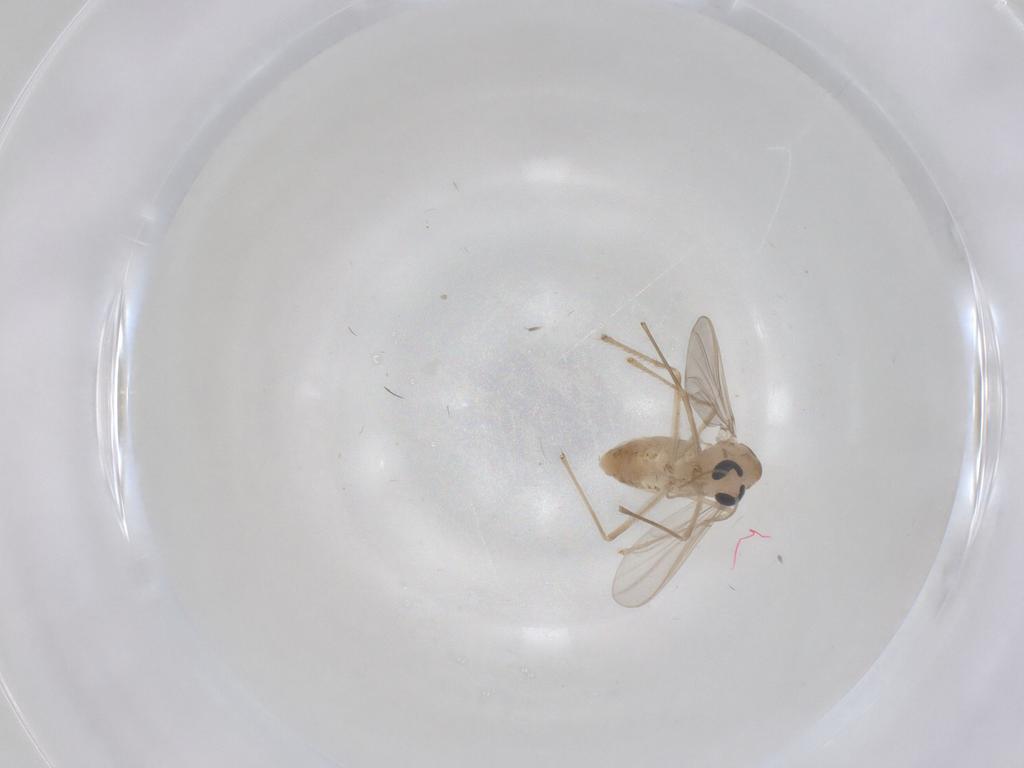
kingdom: Animalia
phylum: Arthropoda
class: Insecta
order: Diptera
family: Chironomidae
